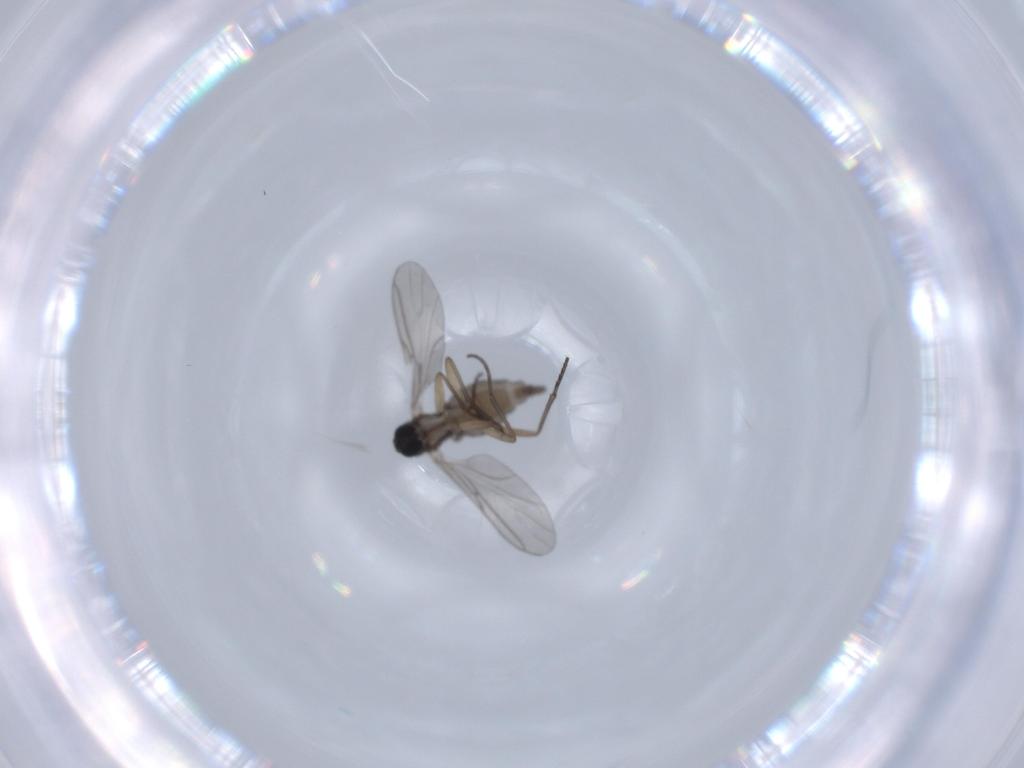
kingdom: Animalia
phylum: Arthropoda
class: Insecta
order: Diptera
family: Sciaridae
